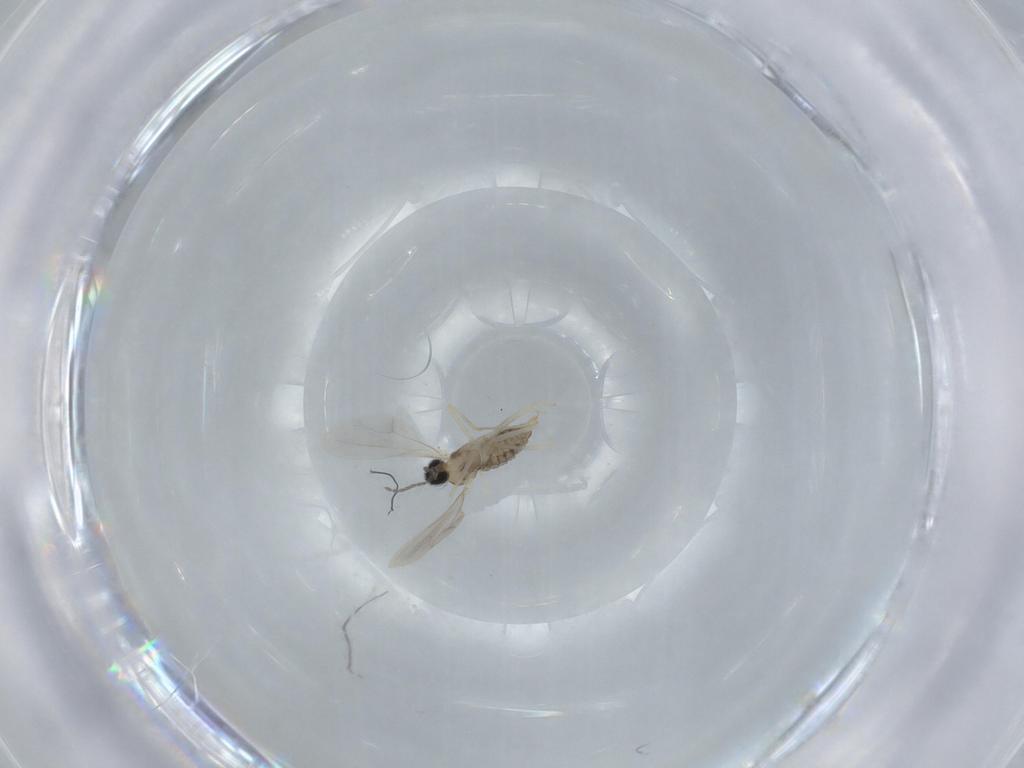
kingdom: Animalia
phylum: Arthropoda
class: Insecta
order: Diptera
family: Cecidomyiidae
